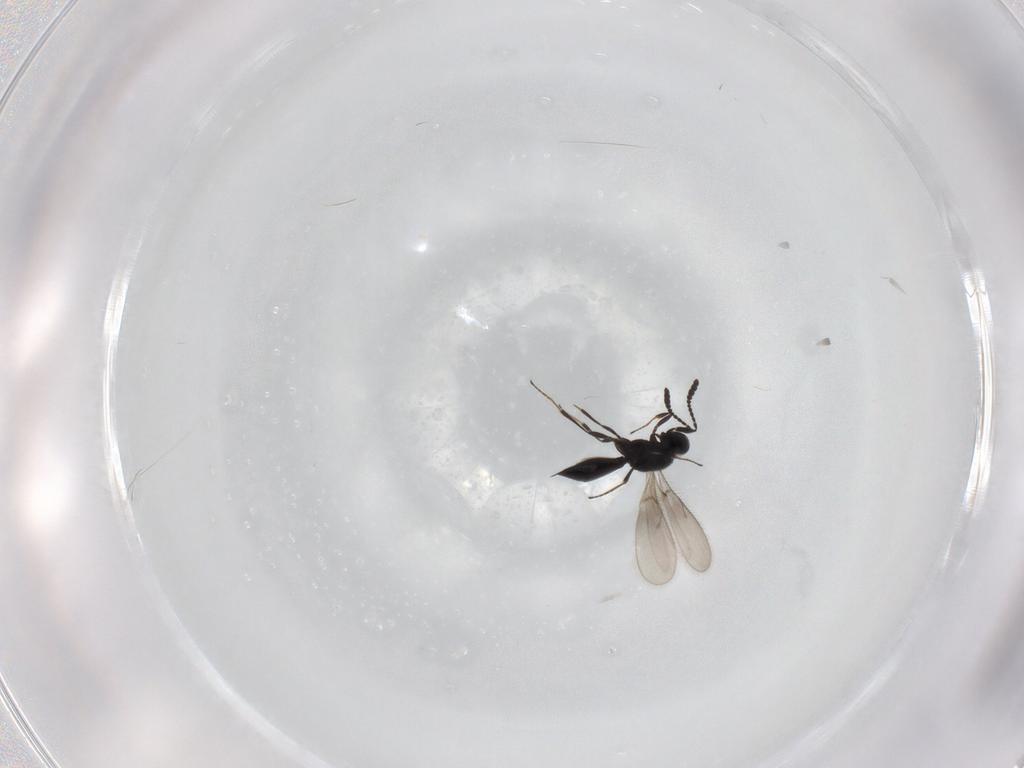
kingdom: Animalia
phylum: Arthropoda
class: Insecta
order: Hymenoptera
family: Scelionidae
